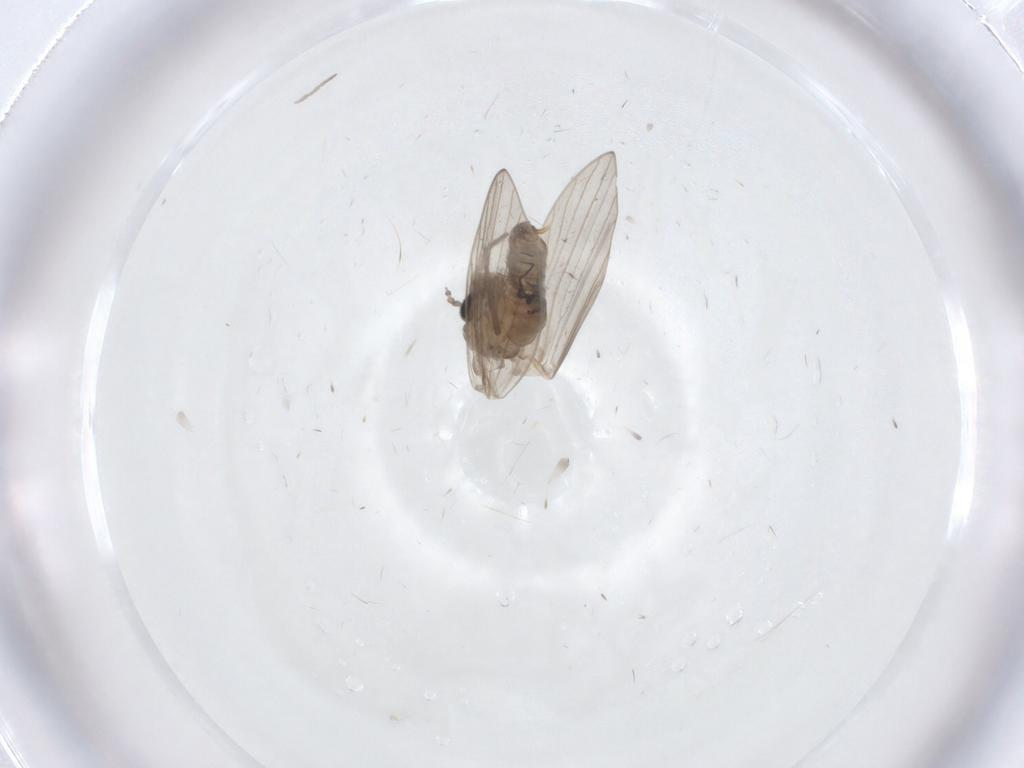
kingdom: Animalia
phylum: Arthropoda
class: Insecta
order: Diptera
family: Psychodidae
